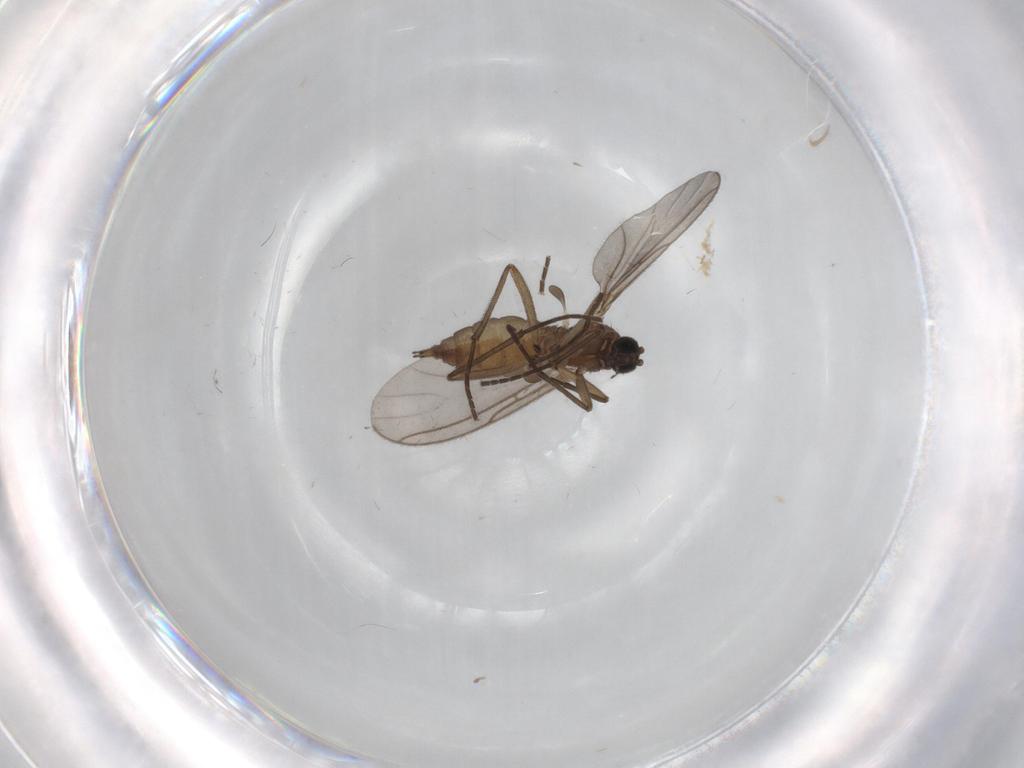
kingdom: Animalia
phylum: Arthropoda
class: Insecta
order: Diptera
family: Sciaridae
